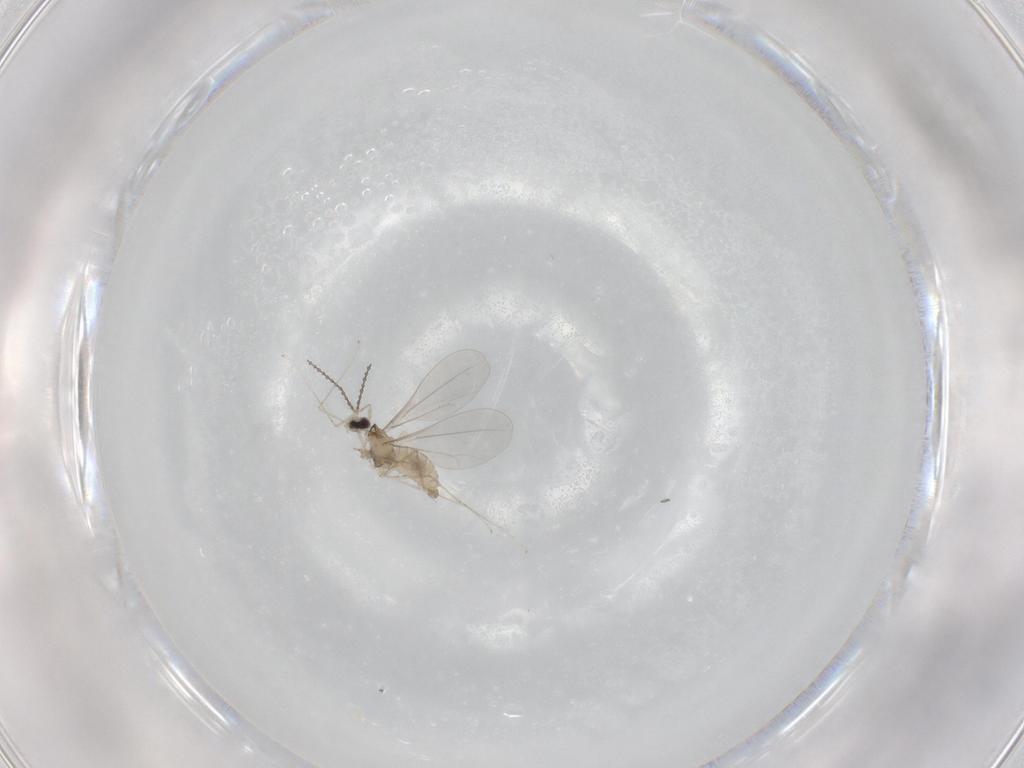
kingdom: Animalia
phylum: Arthropoda
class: Insecta
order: Diptera
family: Cecidomyiidae
